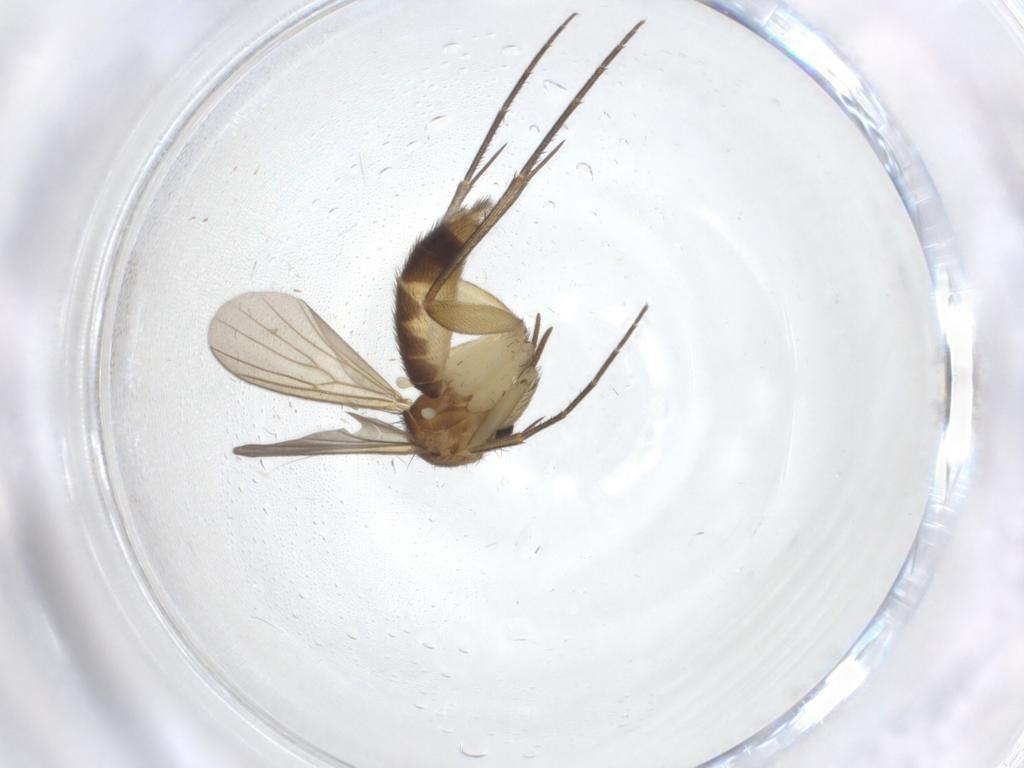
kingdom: Animalia
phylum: Arthropoda
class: Insecta
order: Diptera
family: Mycetophilidae
